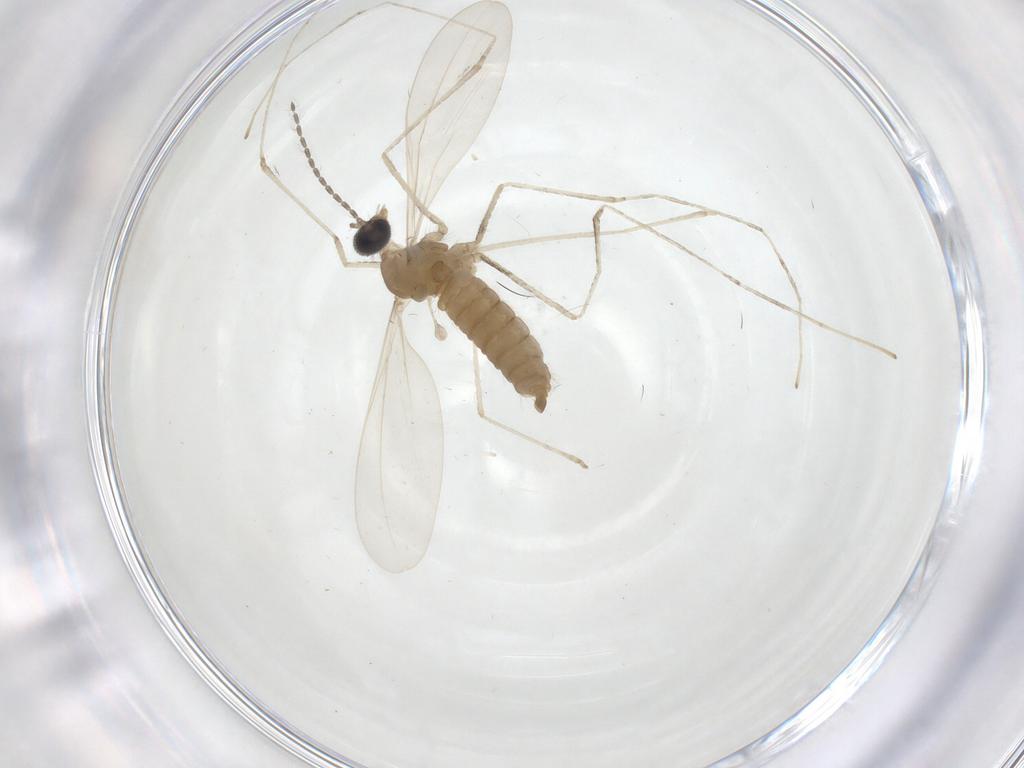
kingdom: Animalia
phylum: Arthropoda
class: Insecta
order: Diptera
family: Cecidomyiidae
